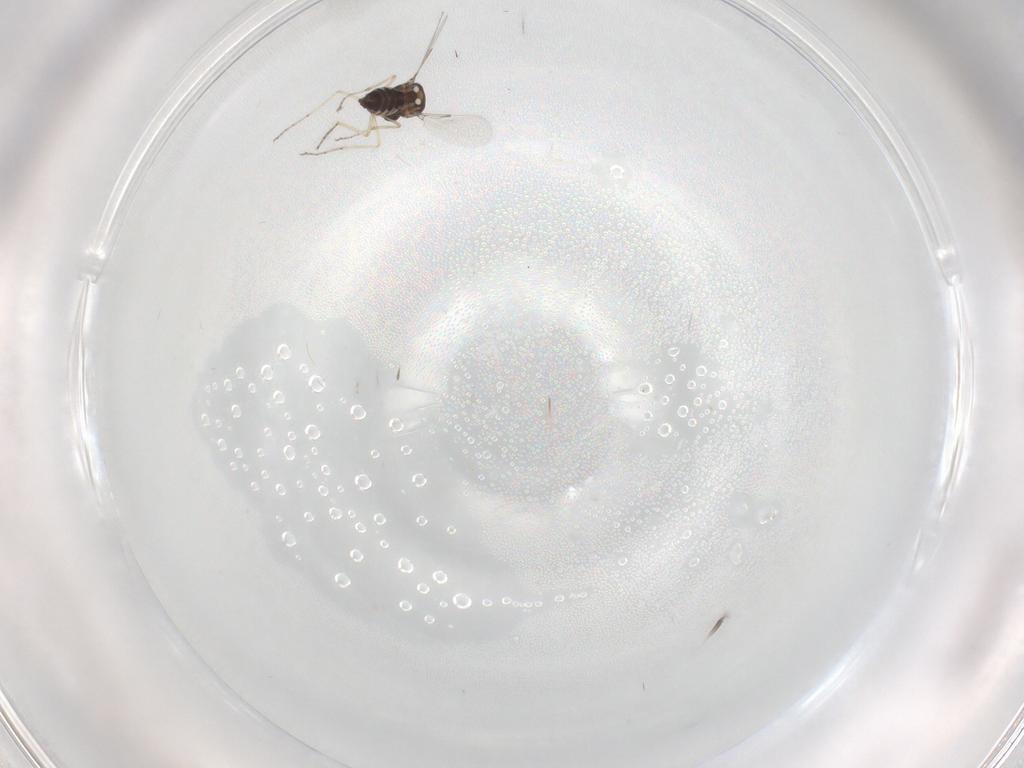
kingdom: Animalia
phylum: Arthropoda
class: Insecta
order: Diptera
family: Ceratopogonidae
